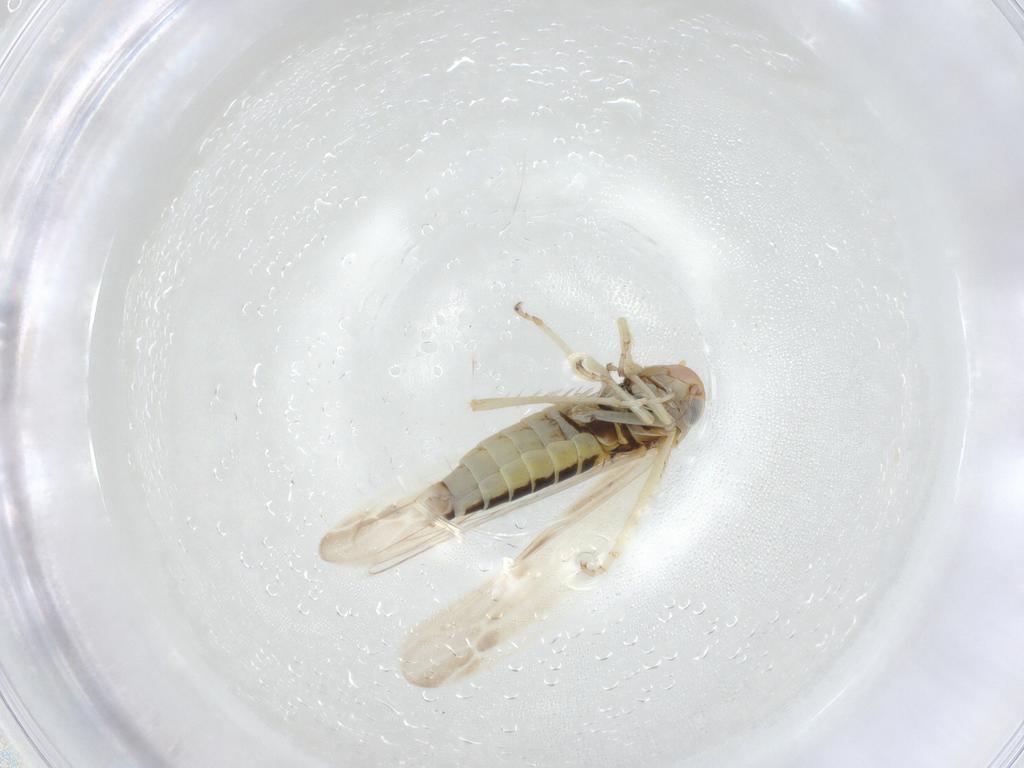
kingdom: Animalia
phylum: Arthropoda
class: Insecta
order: Hemiptera
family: Cicadellidae
